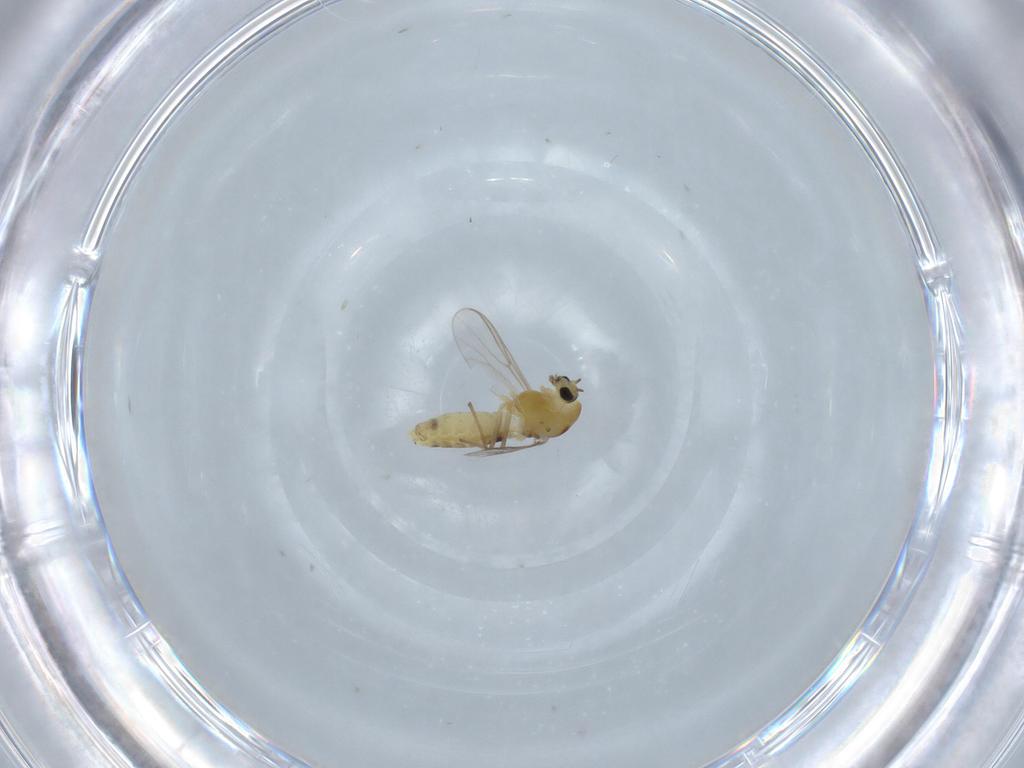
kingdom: Animalia
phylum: Arthropoda
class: Insecta
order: Diptera
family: Chironomidae
